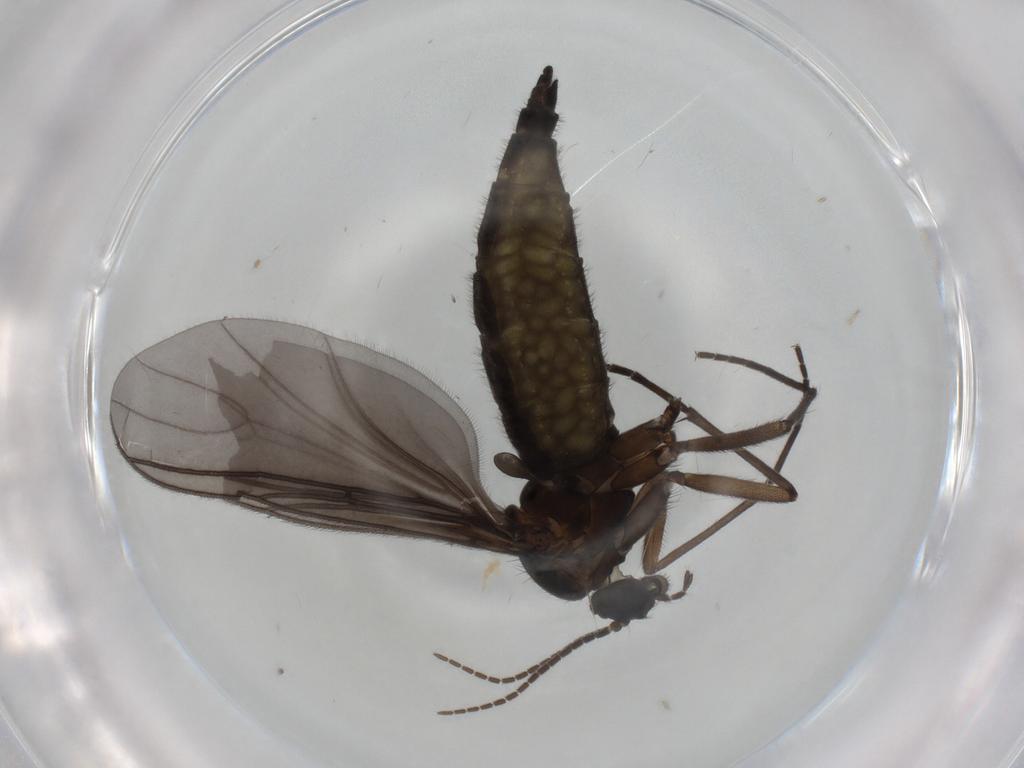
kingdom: Animalia
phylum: Arthropoda
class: Insecta
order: Diptera
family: Sciaridae
